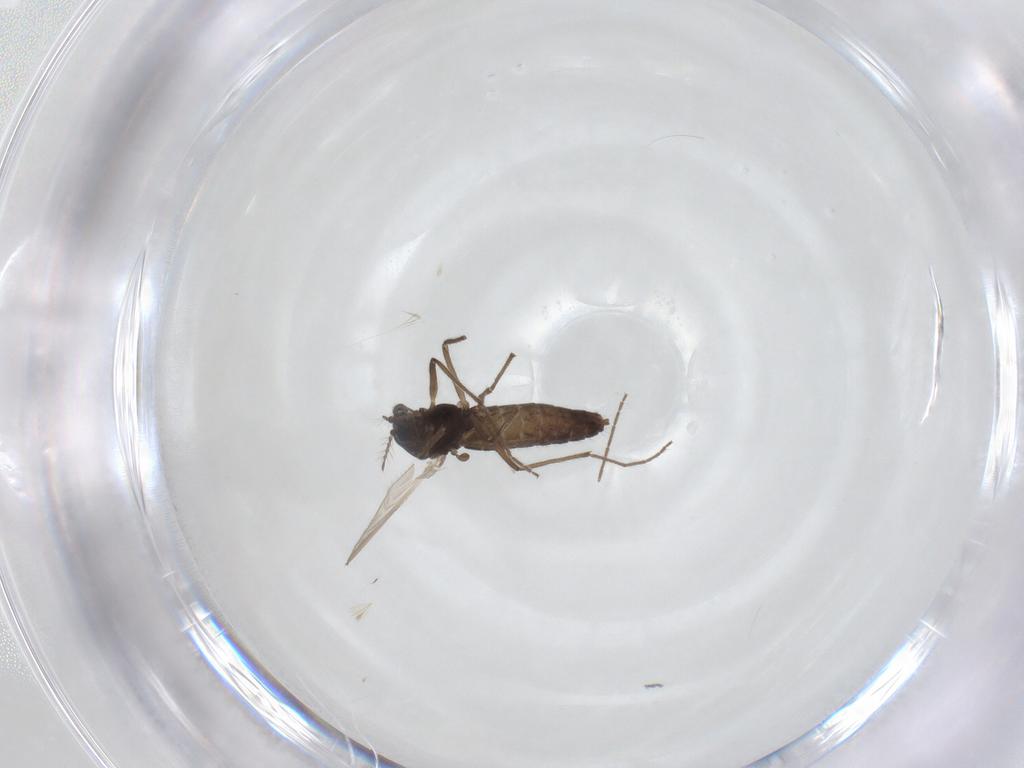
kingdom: Animalia
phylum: Arthropoda
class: Insecta
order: Diptera
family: Chironomidae
